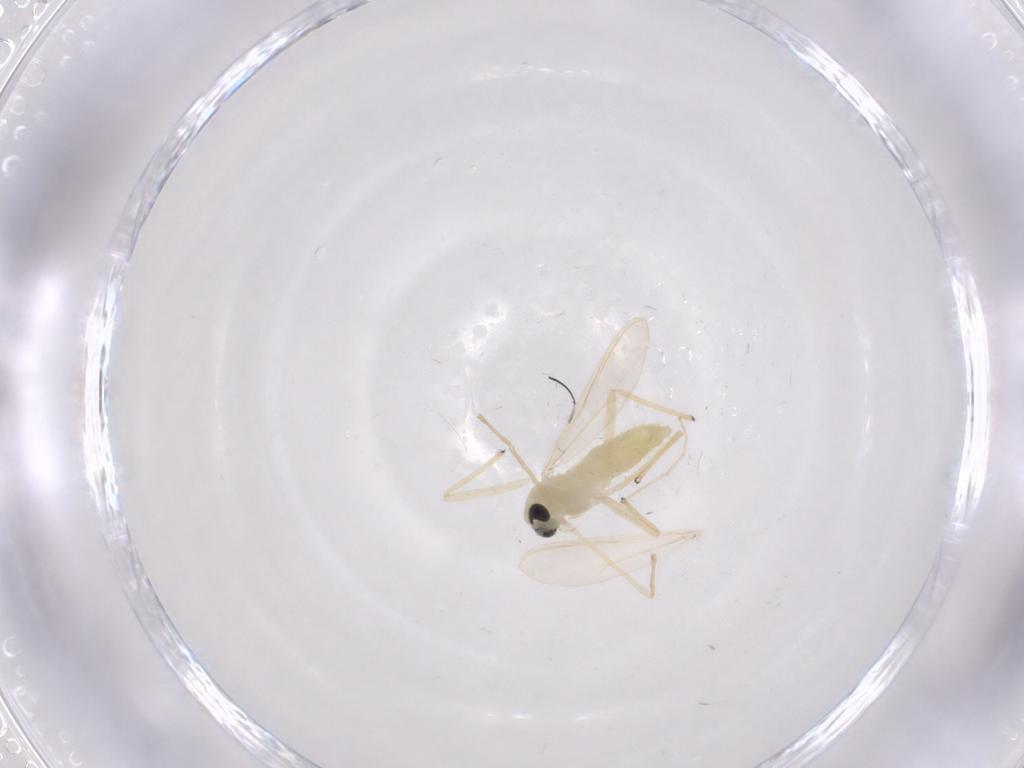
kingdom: Animalia
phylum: Arthropoda
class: Insecta
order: Diptera
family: Chironomidae
